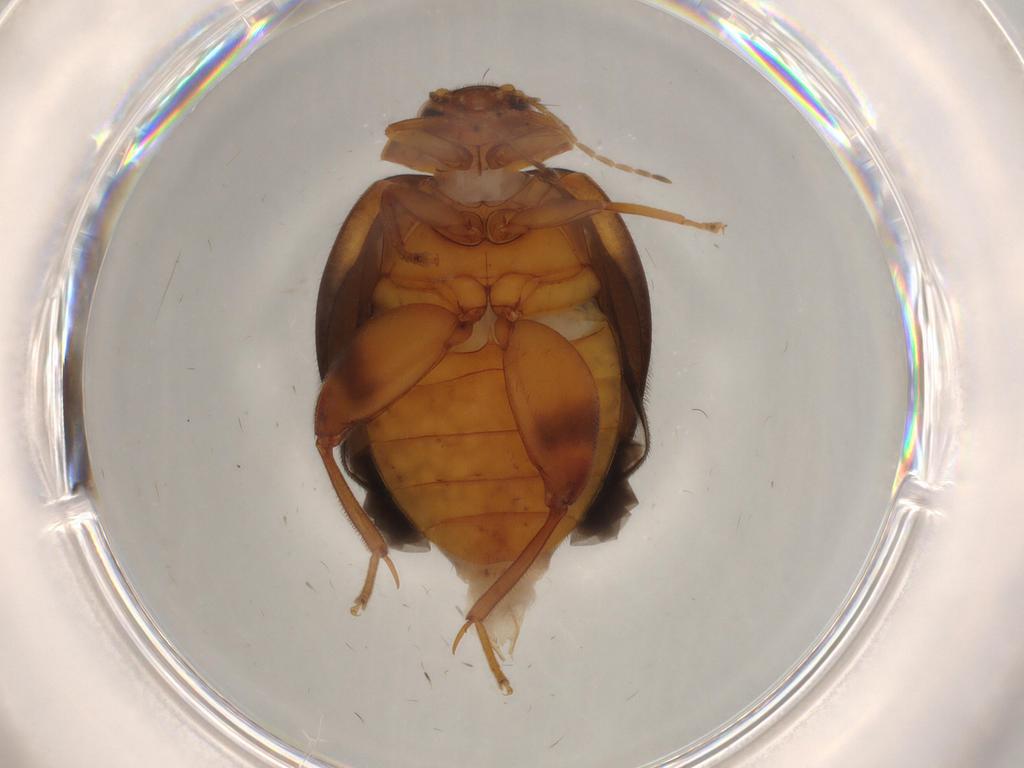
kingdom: Animalia
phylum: Arthropoda
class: Insecta
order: Coleoptera
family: Scirtidae
